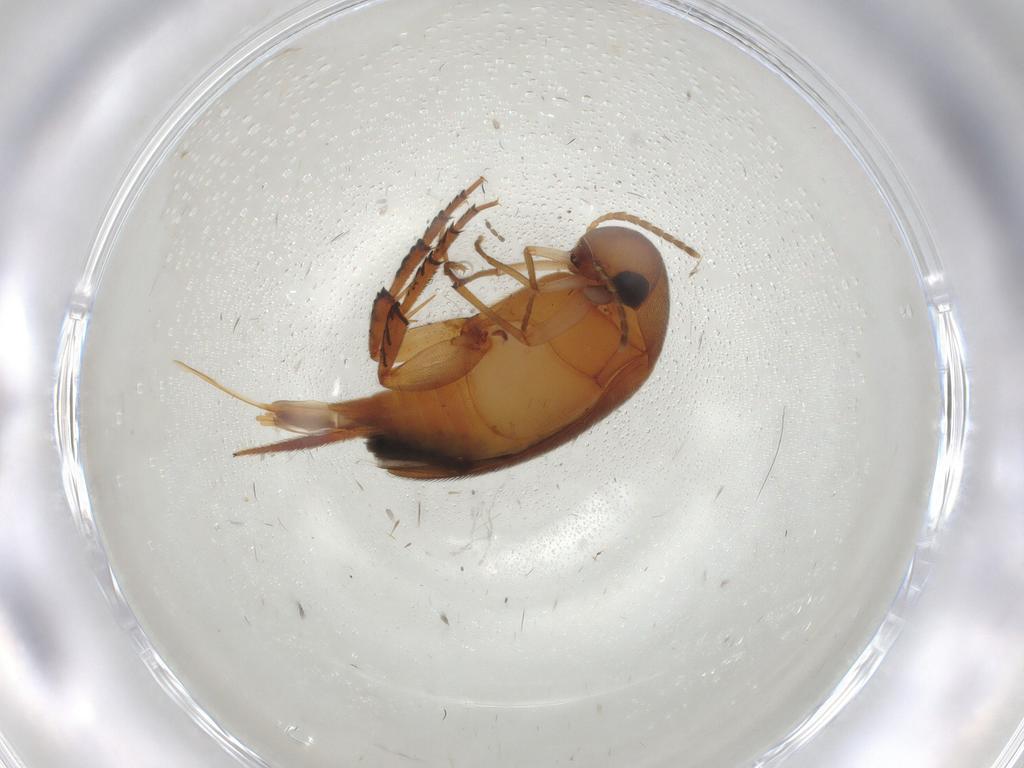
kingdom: Animalia
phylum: Arthropoda
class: Insecta
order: Coleoptera
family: Mordellidae
